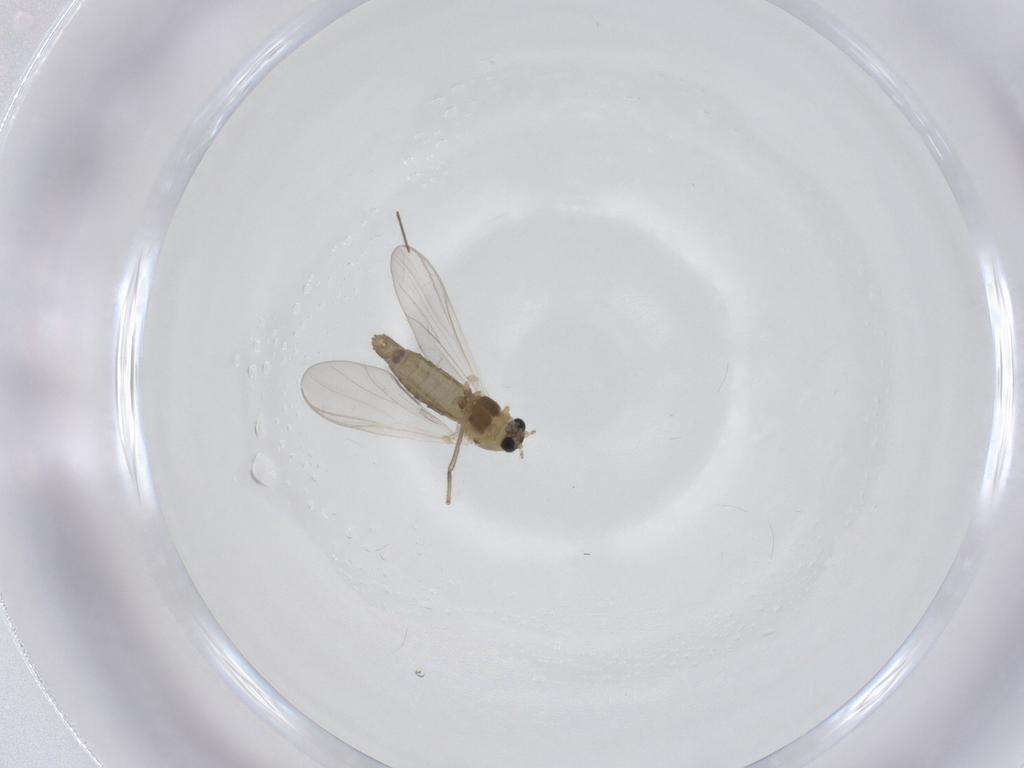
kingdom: Animalia
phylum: Arthropoda
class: Insecta
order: Diptera
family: Chironomidae
